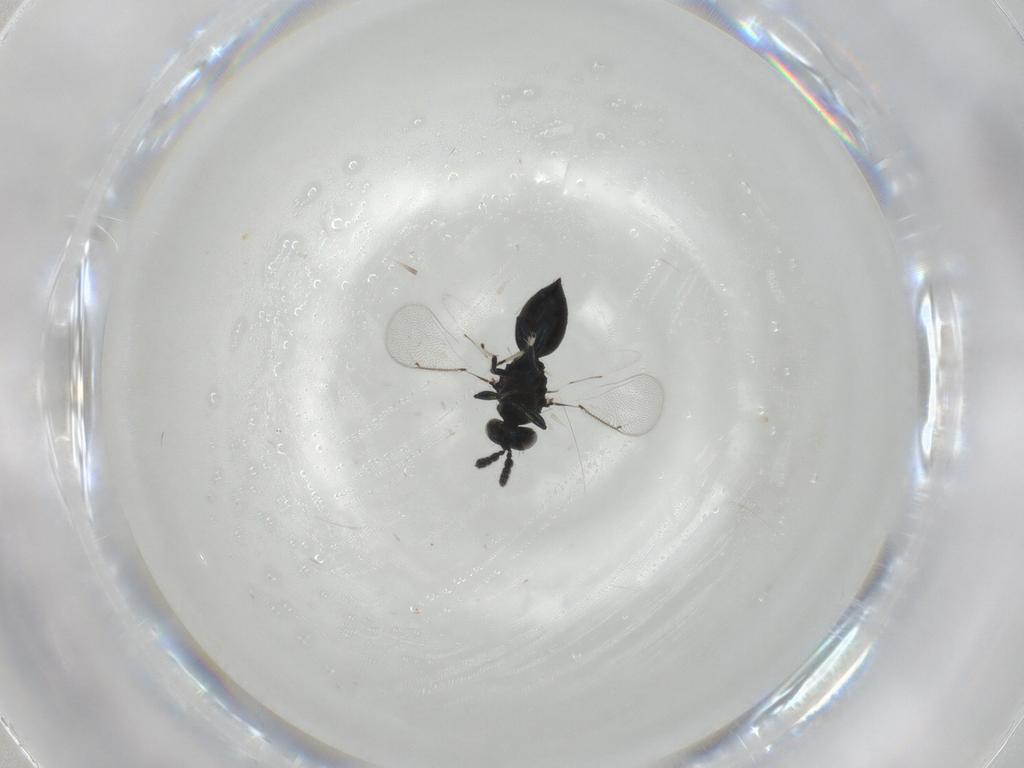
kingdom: Animalia
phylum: Arthropoda
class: Insecta
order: Hymenoptera
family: Eulophidae
